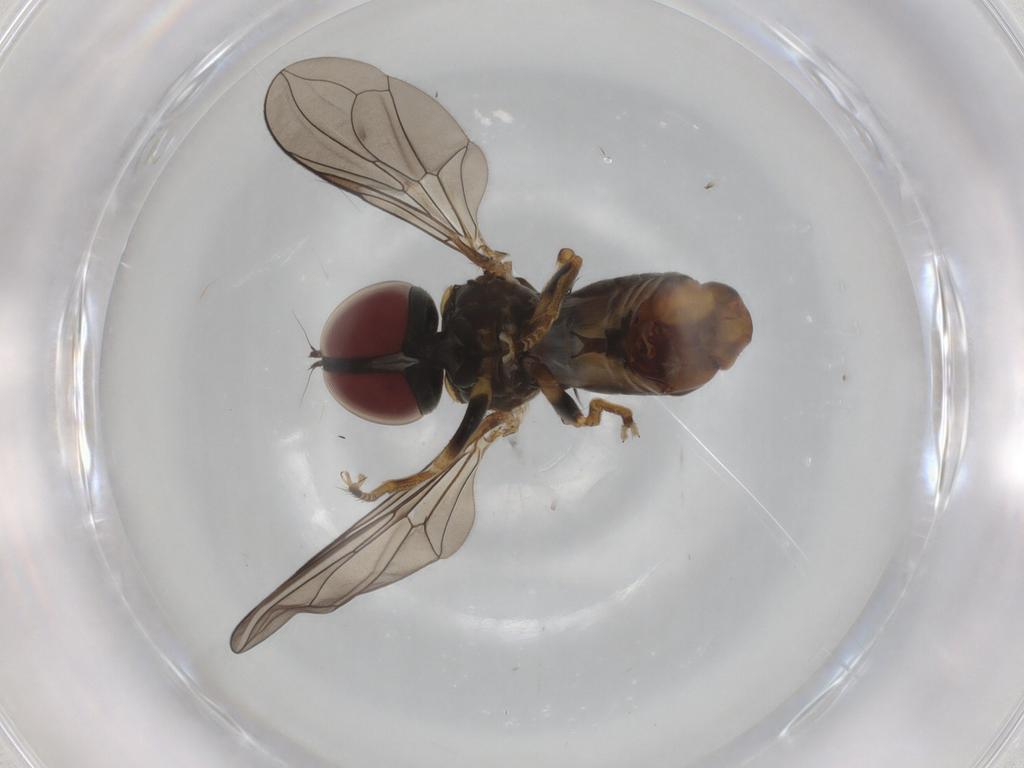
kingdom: Animalia
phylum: Arthropoda
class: Insecta
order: Diptera
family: Pipunculidae
